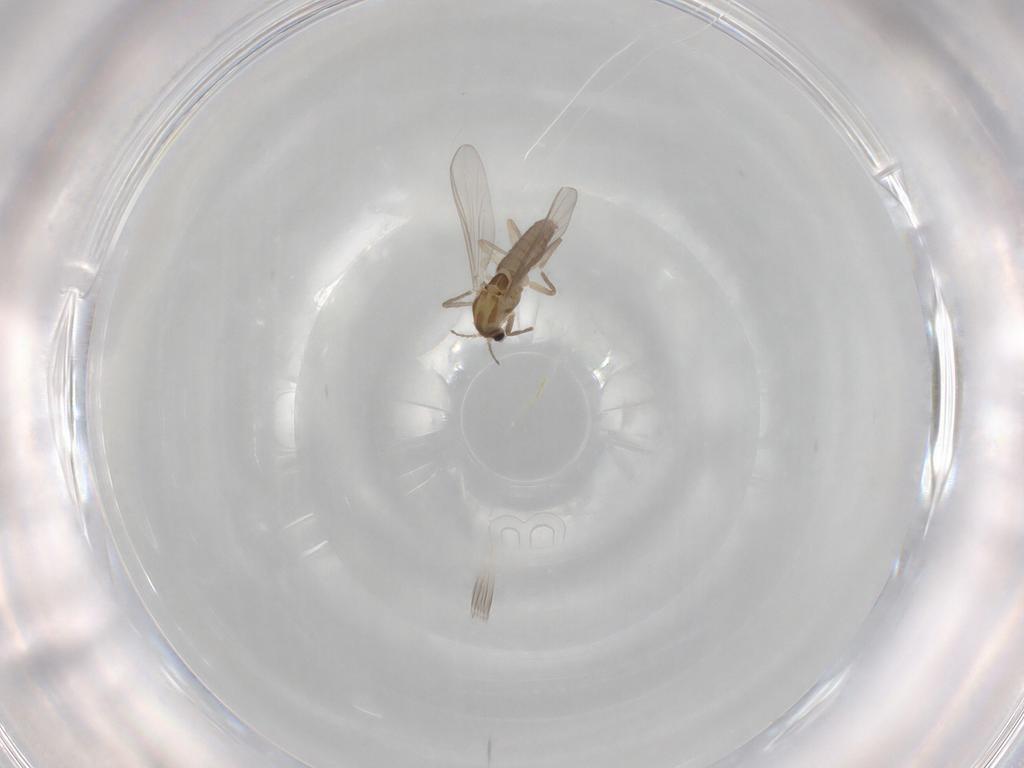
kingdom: Animalia
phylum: Arthropoda
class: Insecta
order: Diptera
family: Chironomidae
